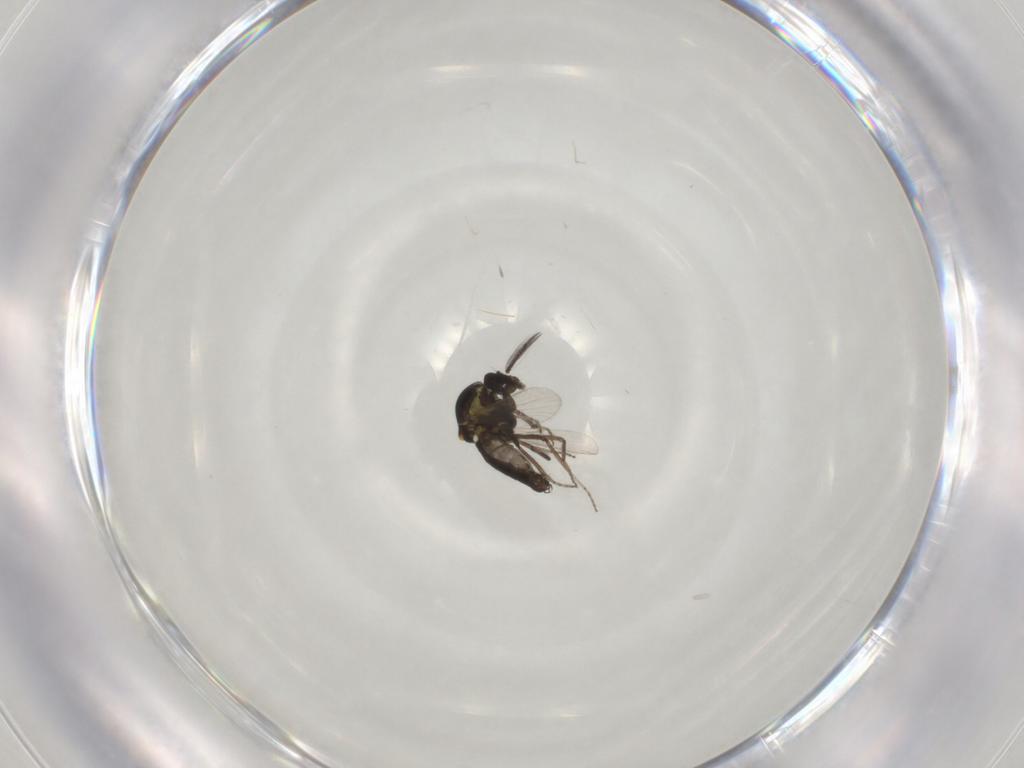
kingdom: Animalia
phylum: Arthropoda
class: Insecta
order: Diptera
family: Ceratopogonidae
